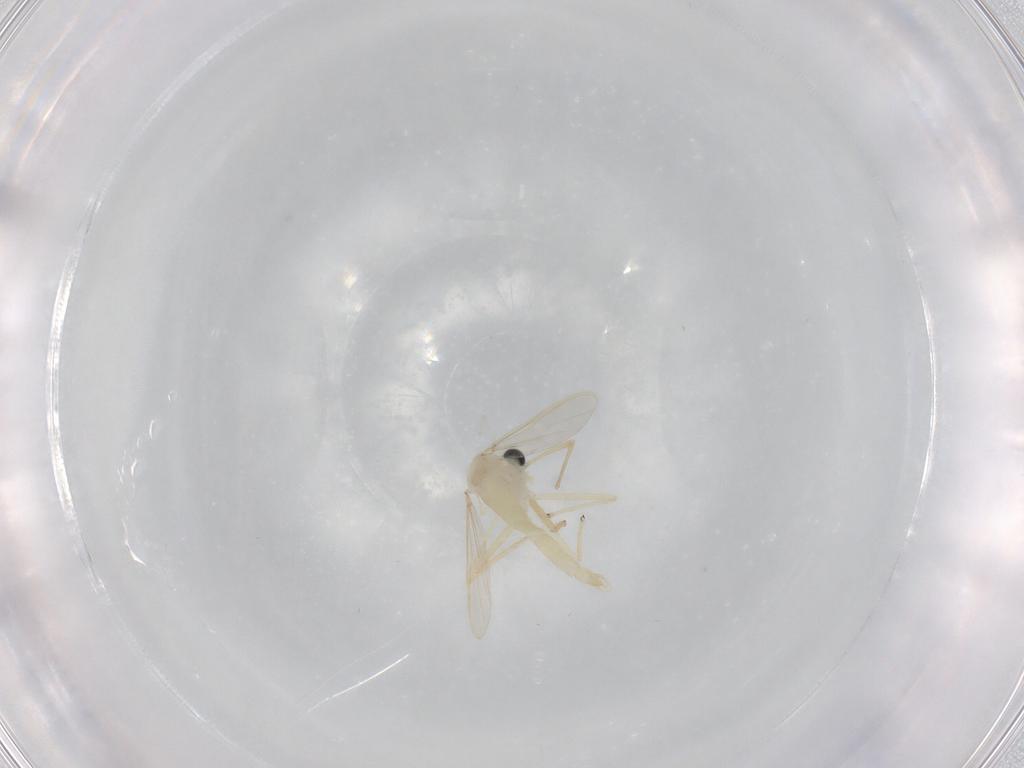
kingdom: Animalia
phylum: Arthropoda
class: Insecta
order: Diptera
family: Chironomidae
